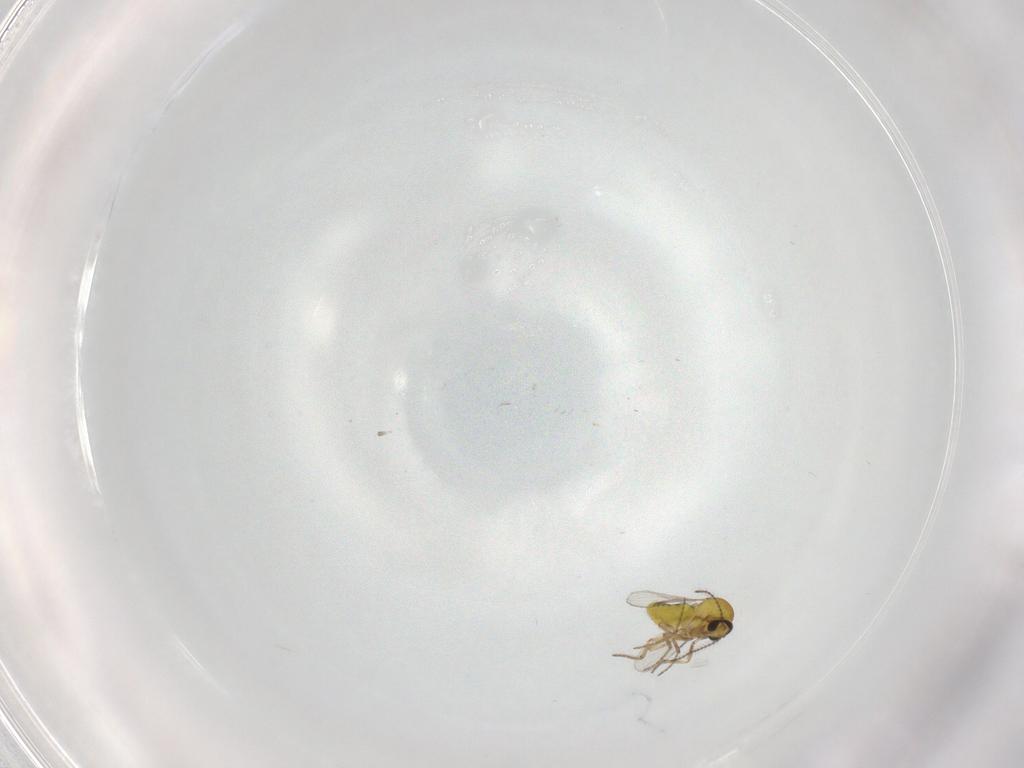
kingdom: Animalia
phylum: Arthropoda
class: Insecta
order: Diptera
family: Ceratopogonidae
